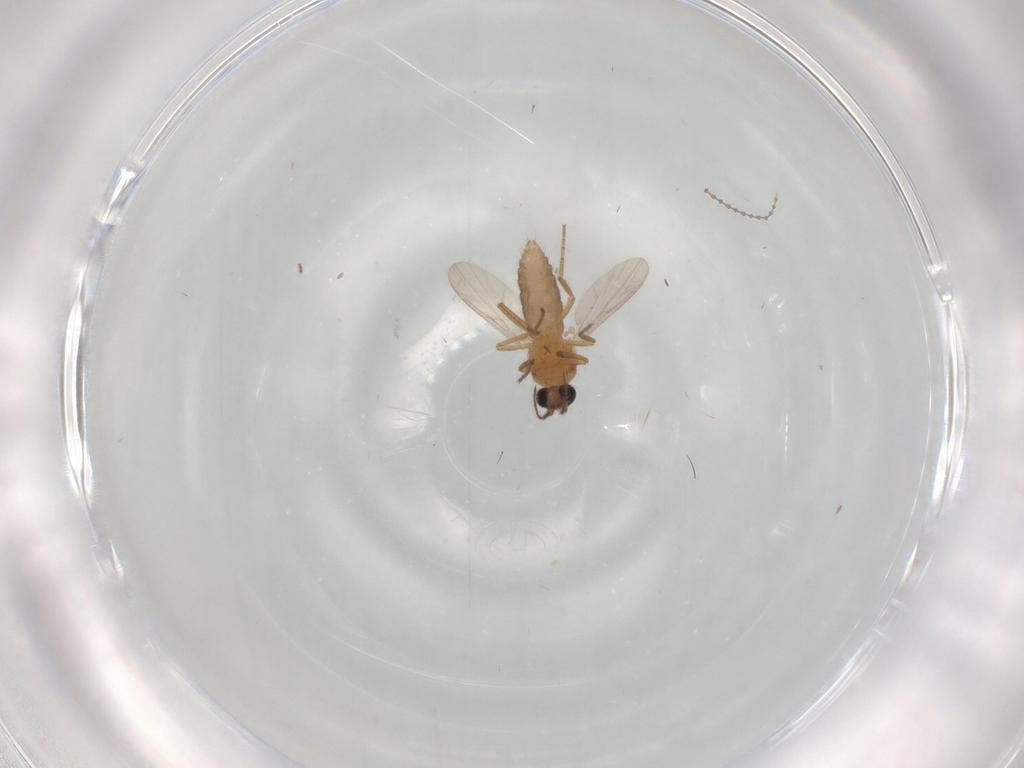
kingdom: Animalia
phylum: Arthropoda
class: Insecta
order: Diptera
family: Ceratopogonidae
